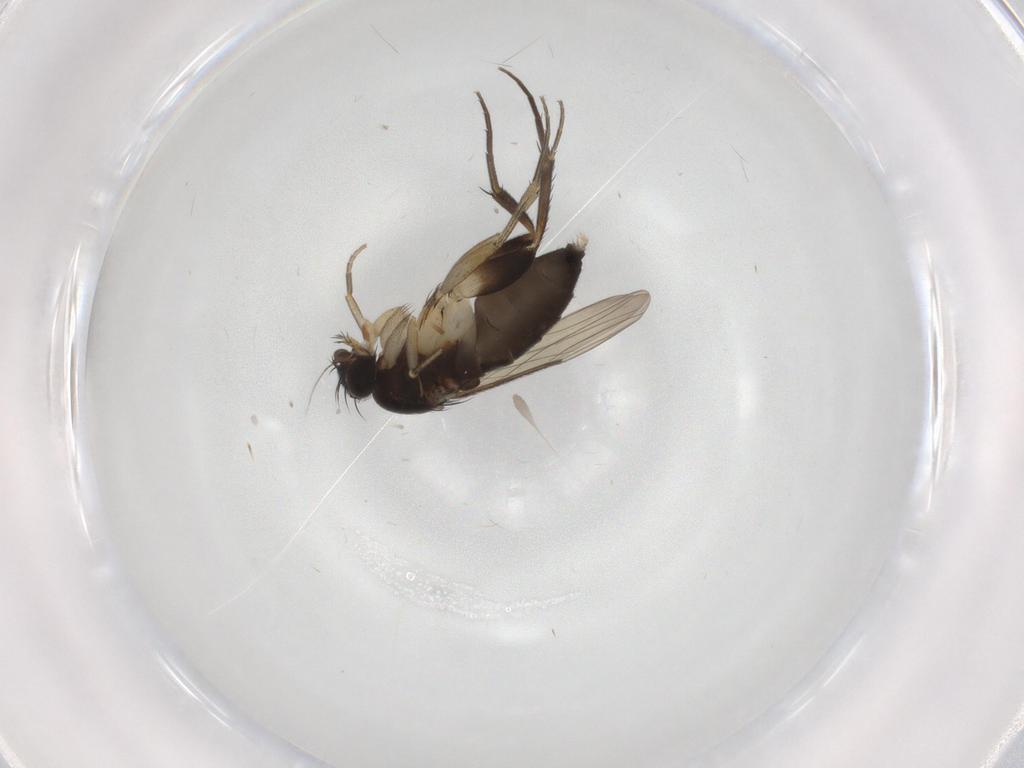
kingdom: Animalia
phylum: Arthropoda
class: Insecta
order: Diptera
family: Phoridae
